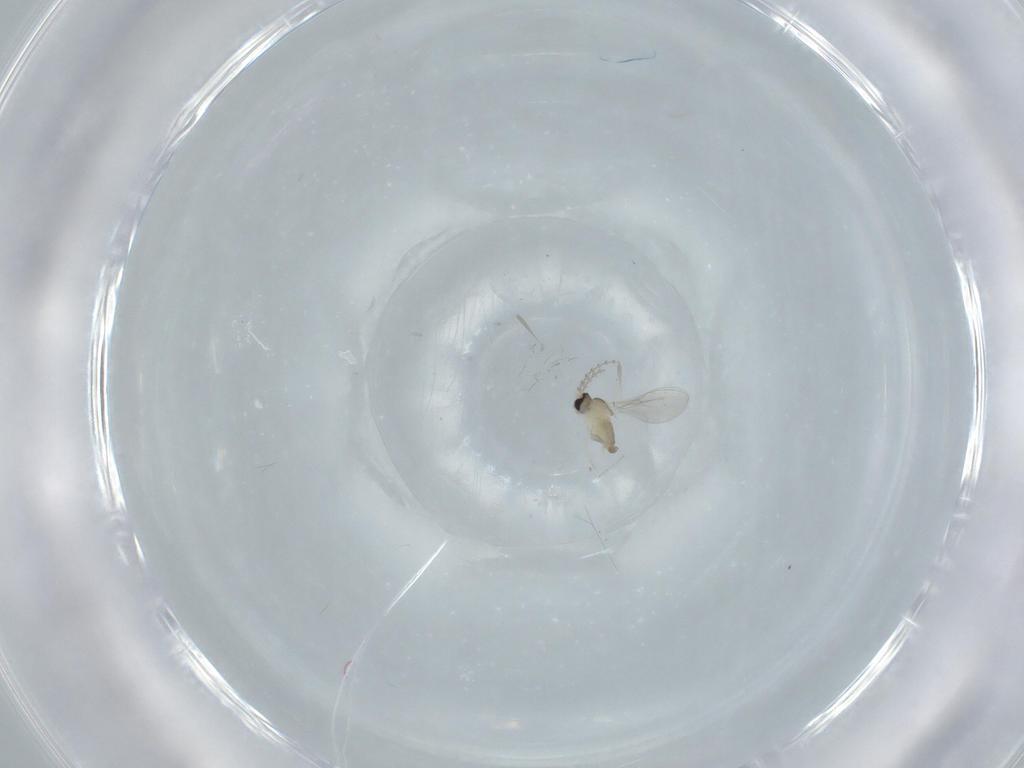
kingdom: Animalia
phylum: Arthropoda
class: Insecta
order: Diptera
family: Cecidomyiidae
